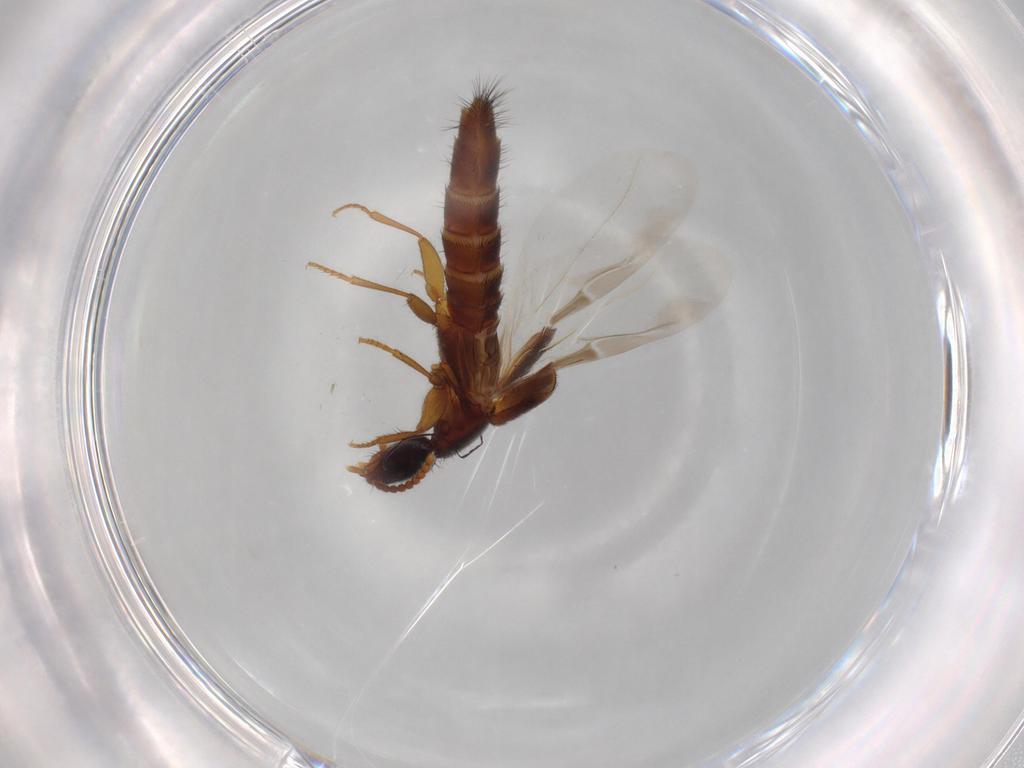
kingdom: Animalia
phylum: Arthropoda
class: Insecta
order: Coleoptera
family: Staphylinidae
